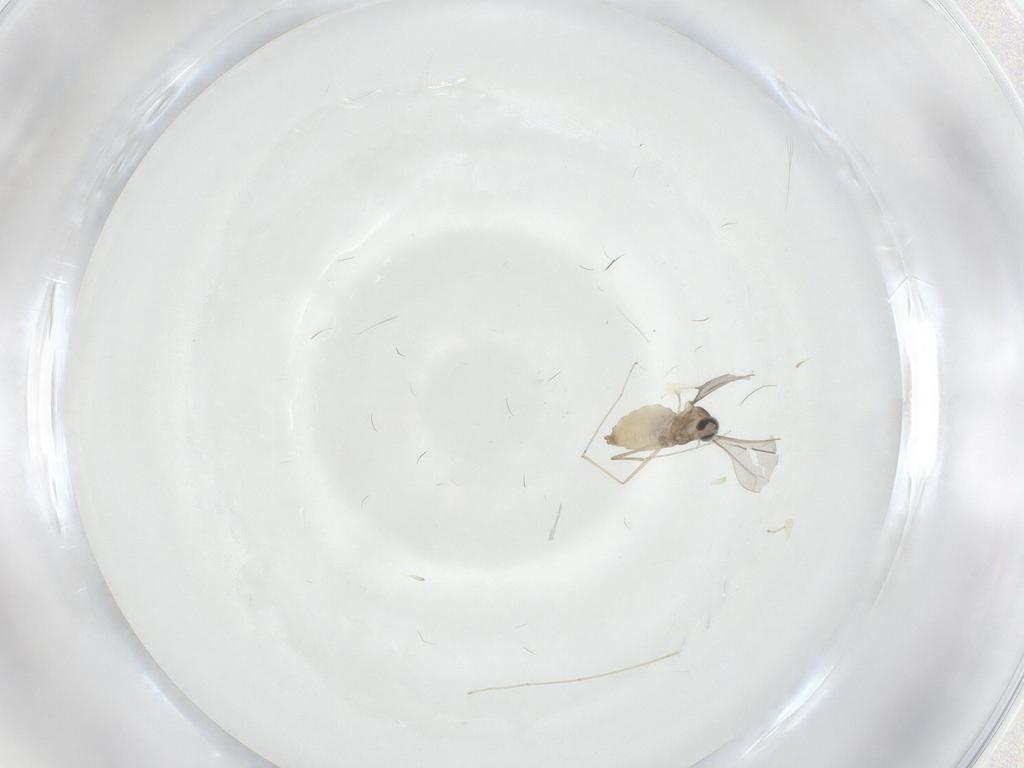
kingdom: Animalia
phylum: Arthropoda
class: Insecta
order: Diptera
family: Cecidomyiidae
